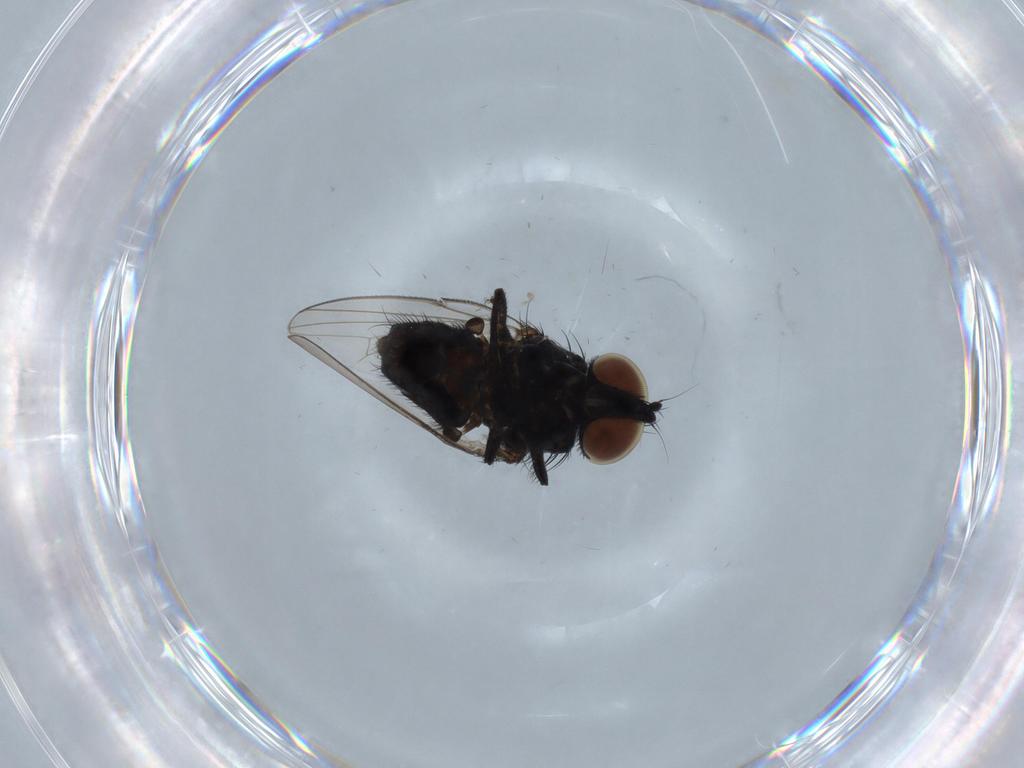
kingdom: Animalia
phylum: Arthropoda
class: Insecta
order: Diptera
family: Milichiidae
